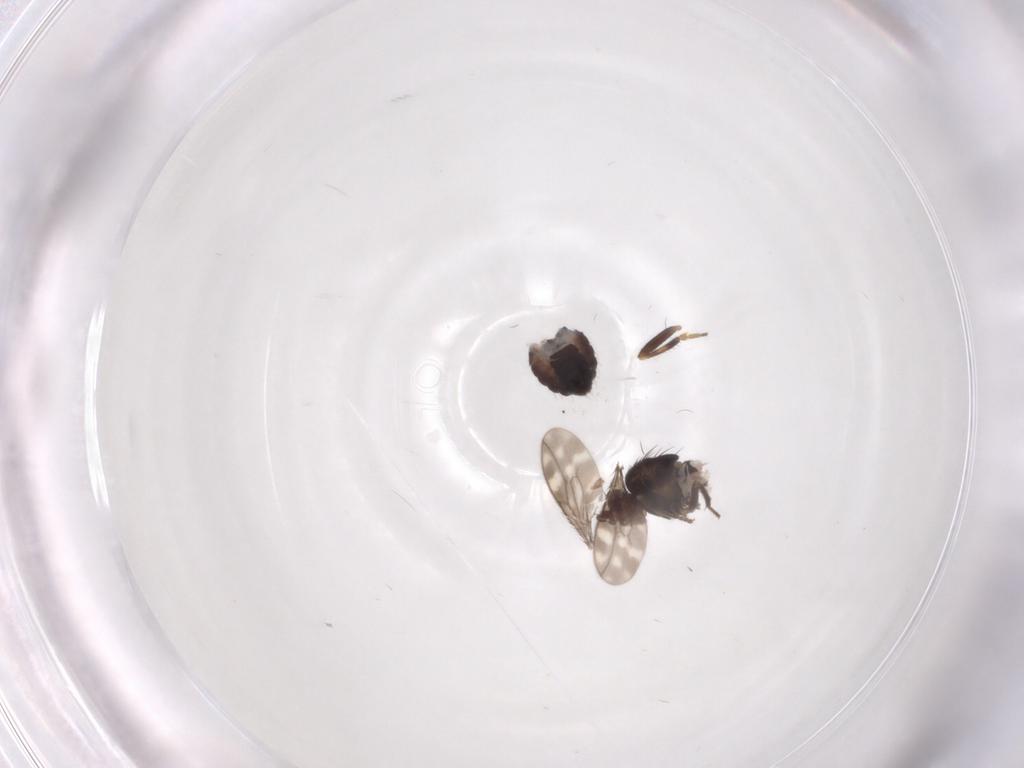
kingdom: Animalia
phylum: Arthropoda
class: Insecta
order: Diptera
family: Sphaeroceridae
